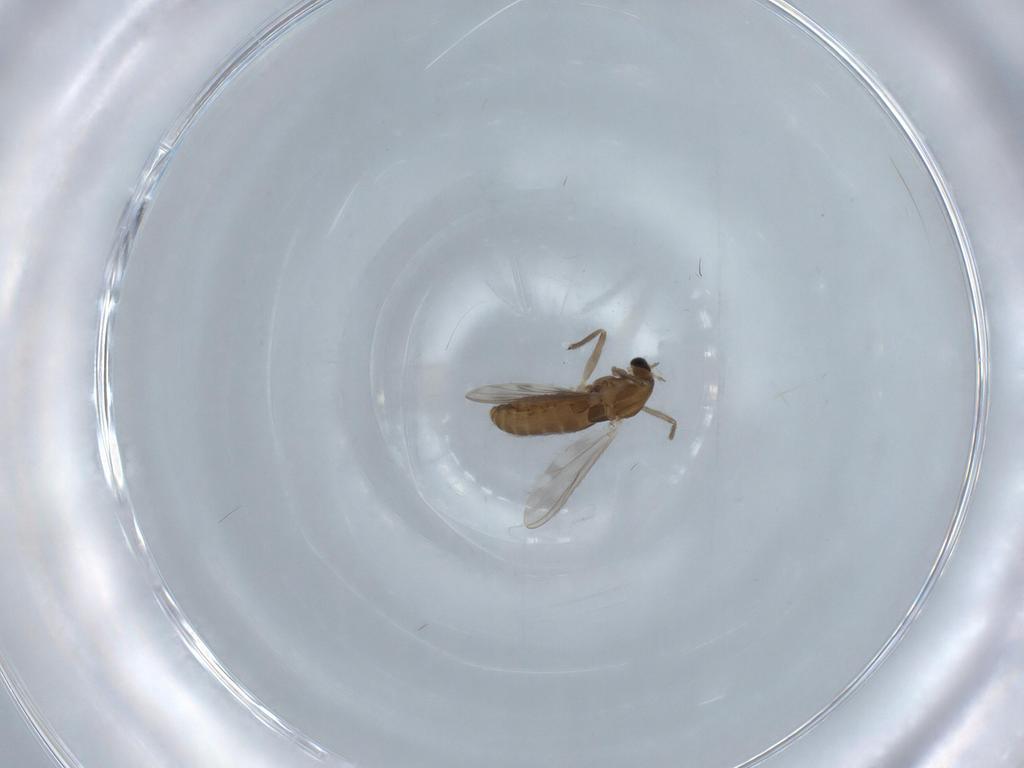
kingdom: Animalia
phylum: Arthropoda
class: Insecta
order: Diptera
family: Chironomidae
